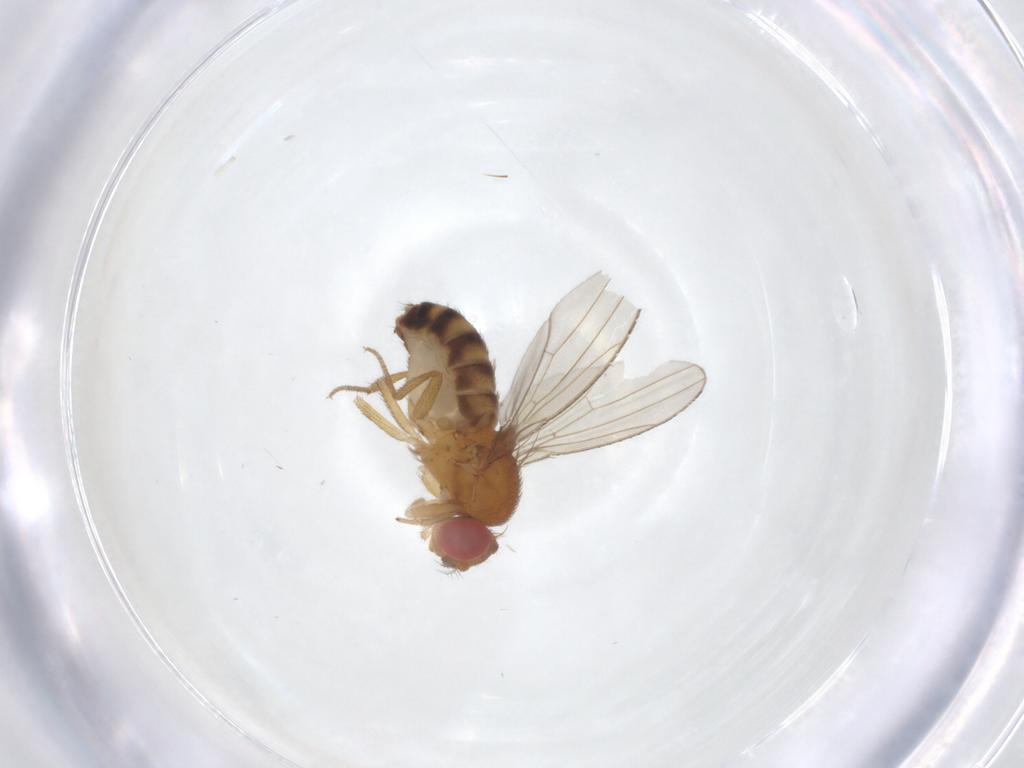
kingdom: Animalia
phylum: Arthropoda
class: Insecta
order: Diptera
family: Drosophilidae
